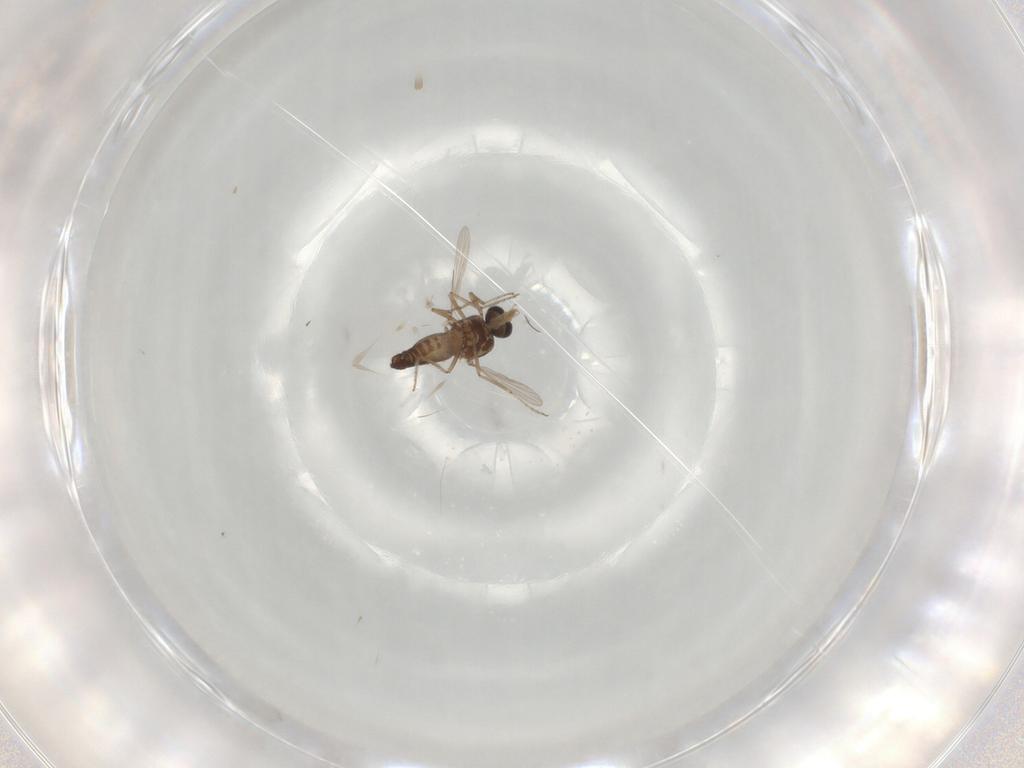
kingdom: Animalia
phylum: Arthropoda
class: Insecta
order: Diptera
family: Ceratopogonidae
